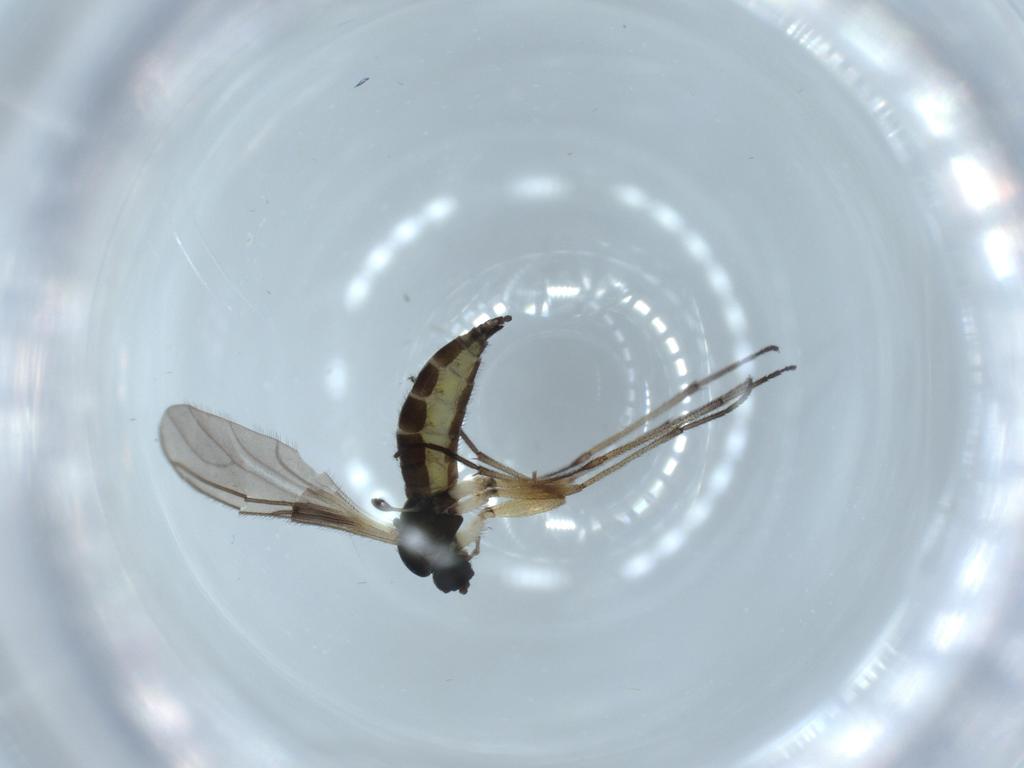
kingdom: Animalia
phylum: Arthropoda
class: Insecta
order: Diptera
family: Sciaridae
